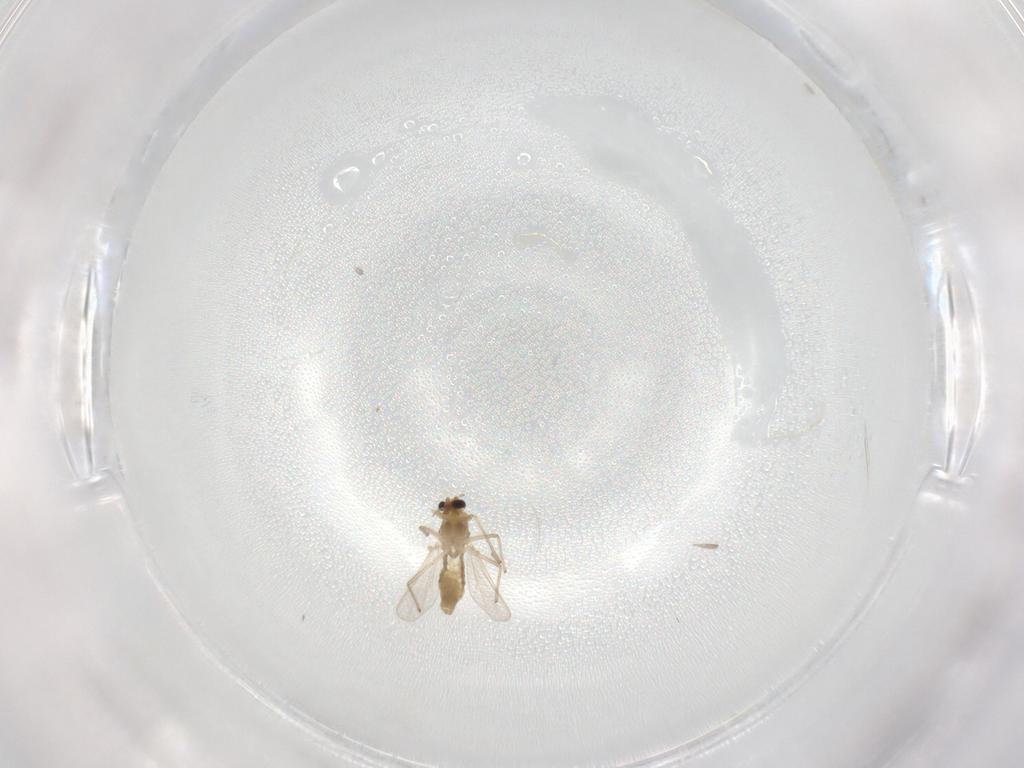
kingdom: Animalia
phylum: Arthropoda
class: Insecta
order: Diptera
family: Chironomidae
